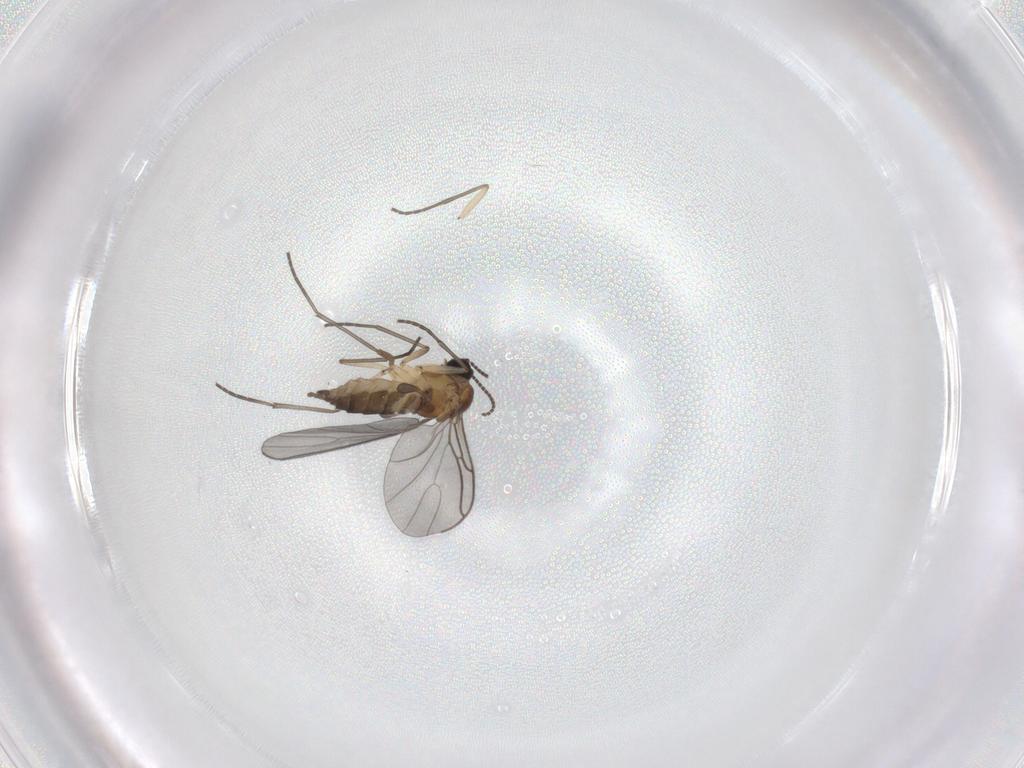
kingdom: Animalia
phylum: Arthropoda
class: Insecta
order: Diptera
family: Sciaridae
